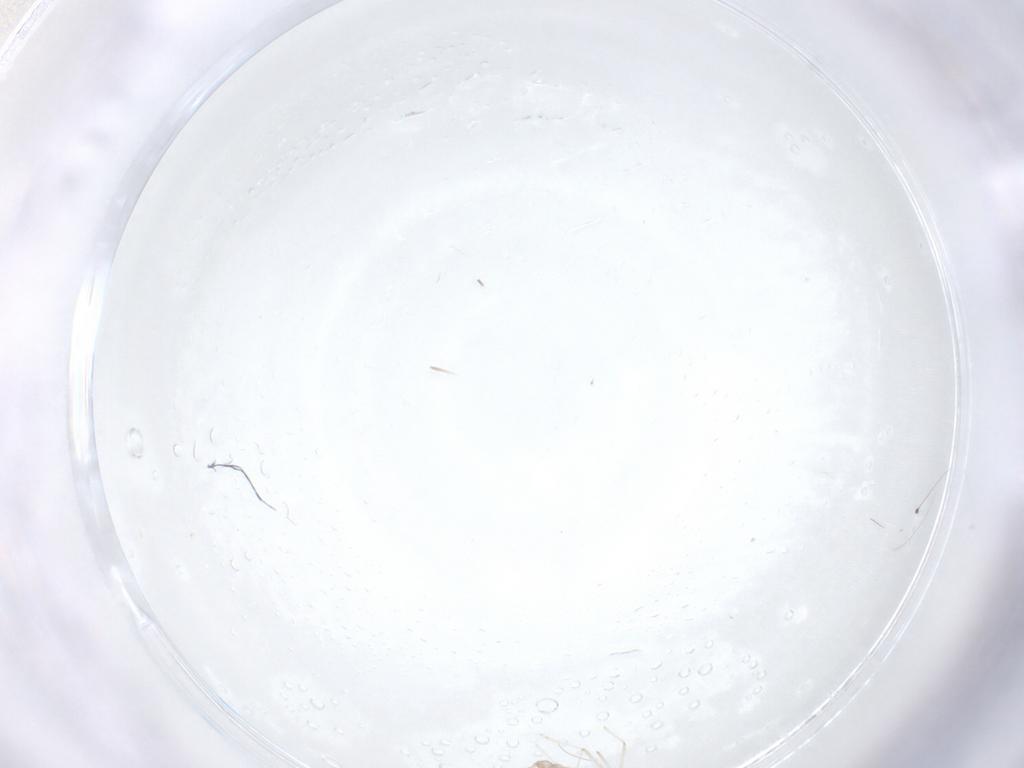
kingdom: Animalia
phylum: Arthropoda
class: Insecta
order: Diptera
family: Cecidomyiidae
